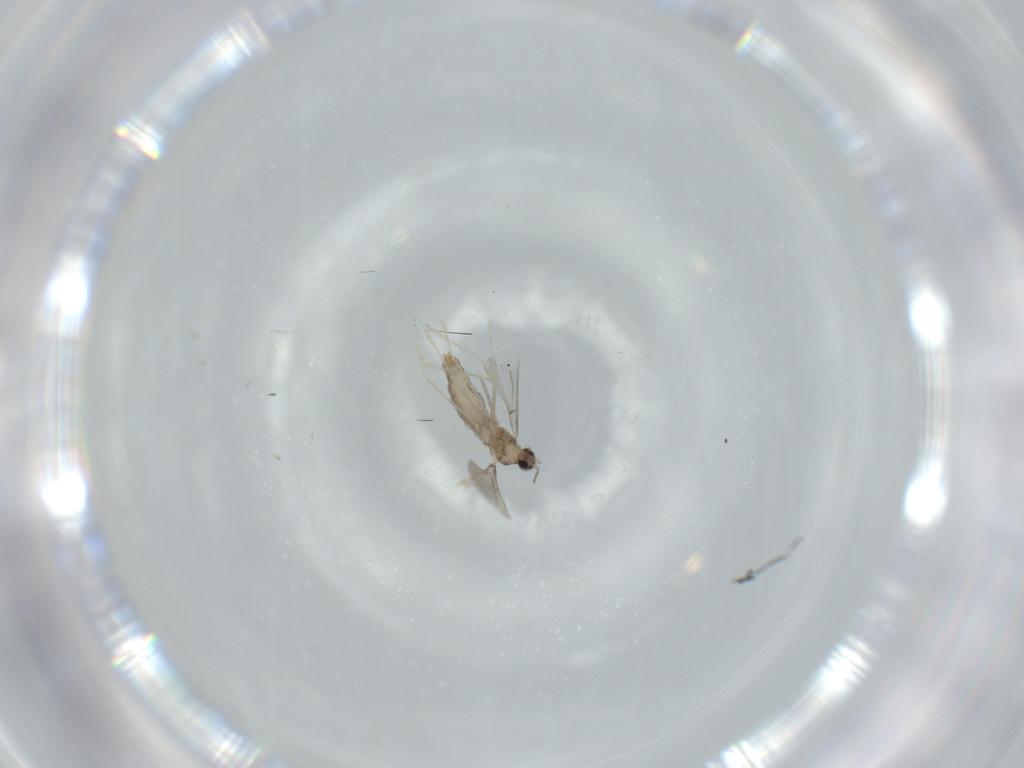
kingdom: Animalia
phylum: Arthropoda
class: Insecta
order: Diptera
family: Cecidomyiidae
